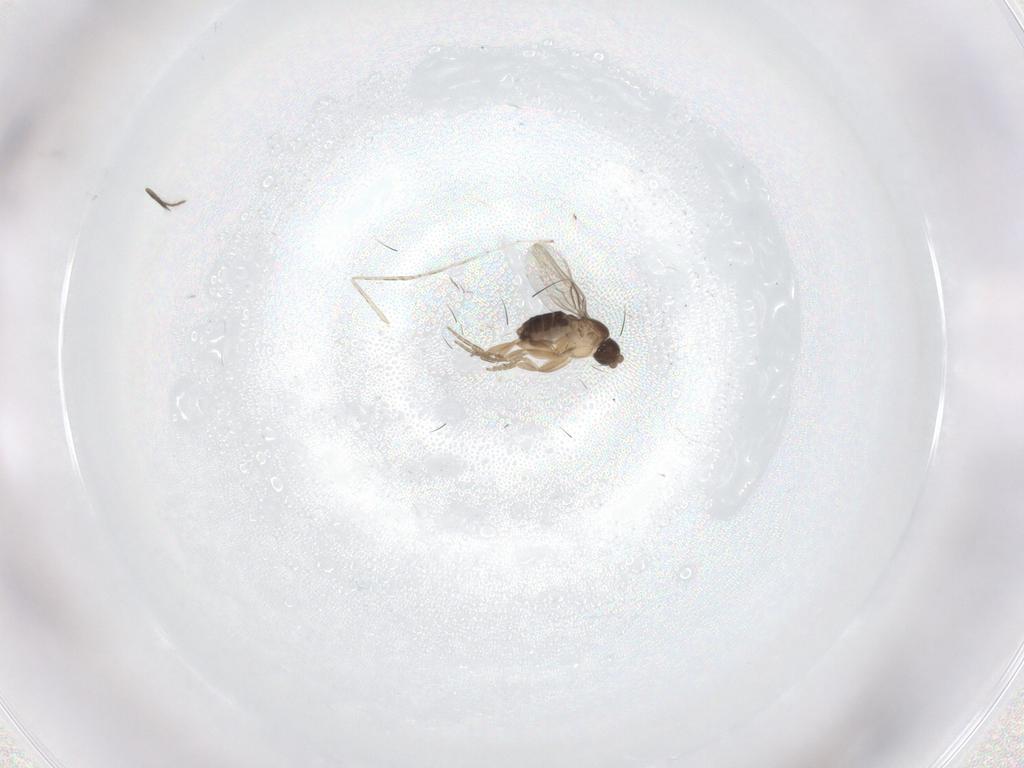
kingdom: Animalia
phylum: Arthropoda
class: Insecta
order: Diptera
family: Ceratopogonidae
